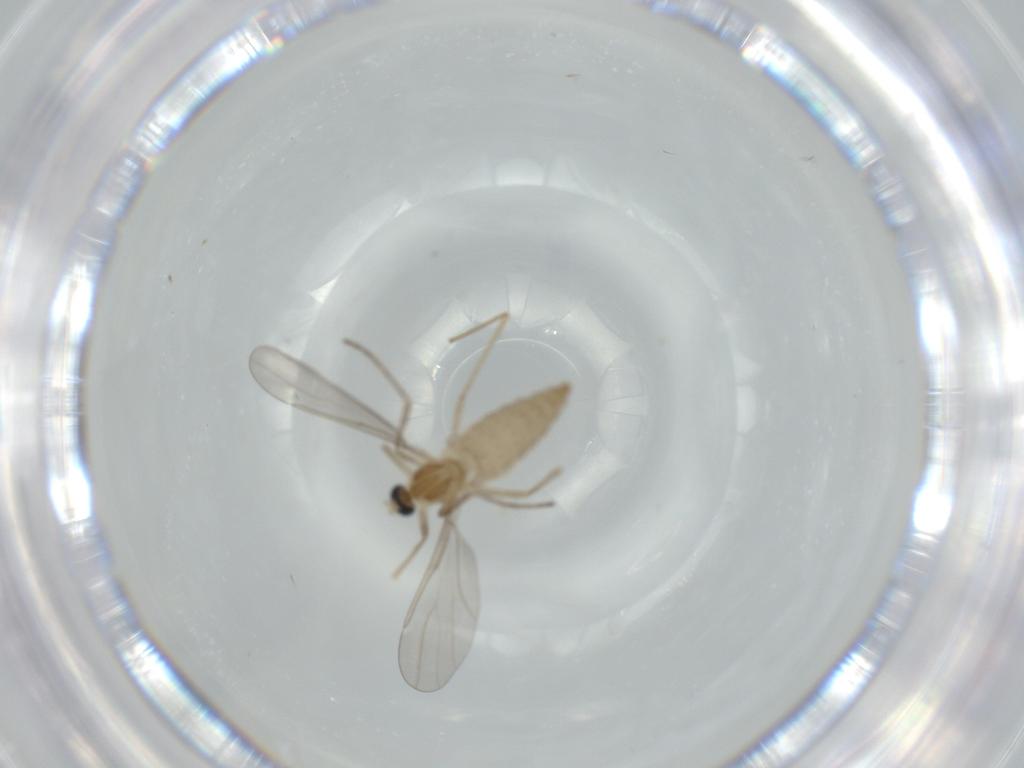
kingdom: Animalia
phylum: Arthropoda
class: Insecta
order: Diptera
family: Cecidomyiidae
